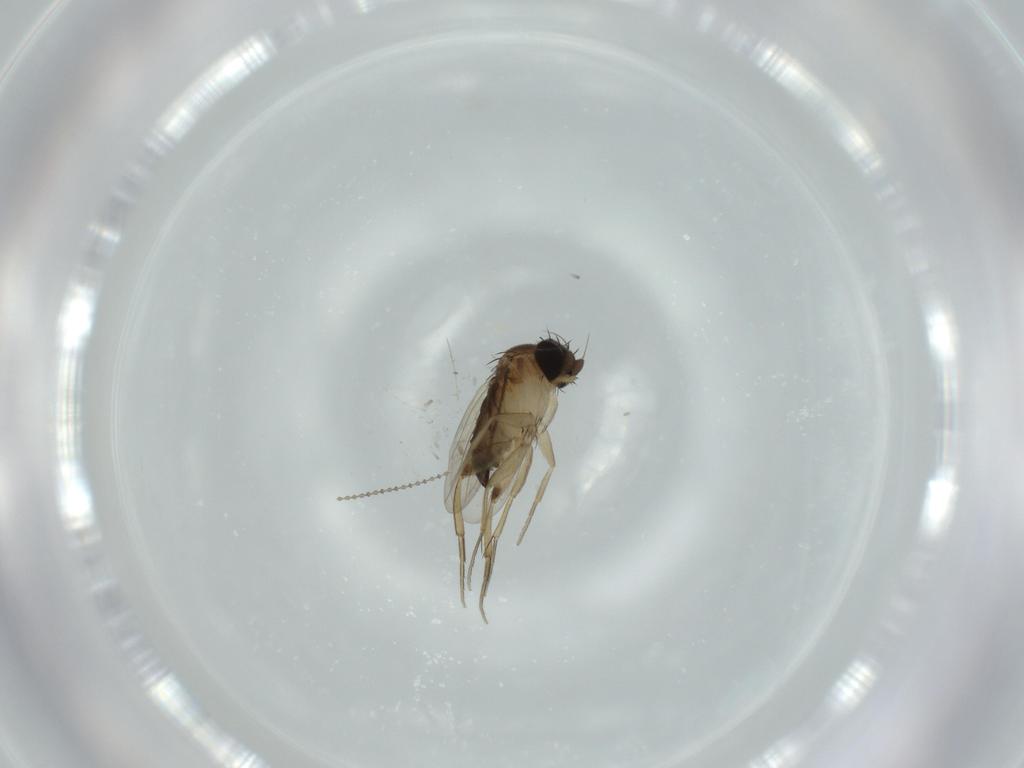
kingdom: Animalia
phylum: Arthropoda
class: Insecta
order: Diptera
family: Phoridae
